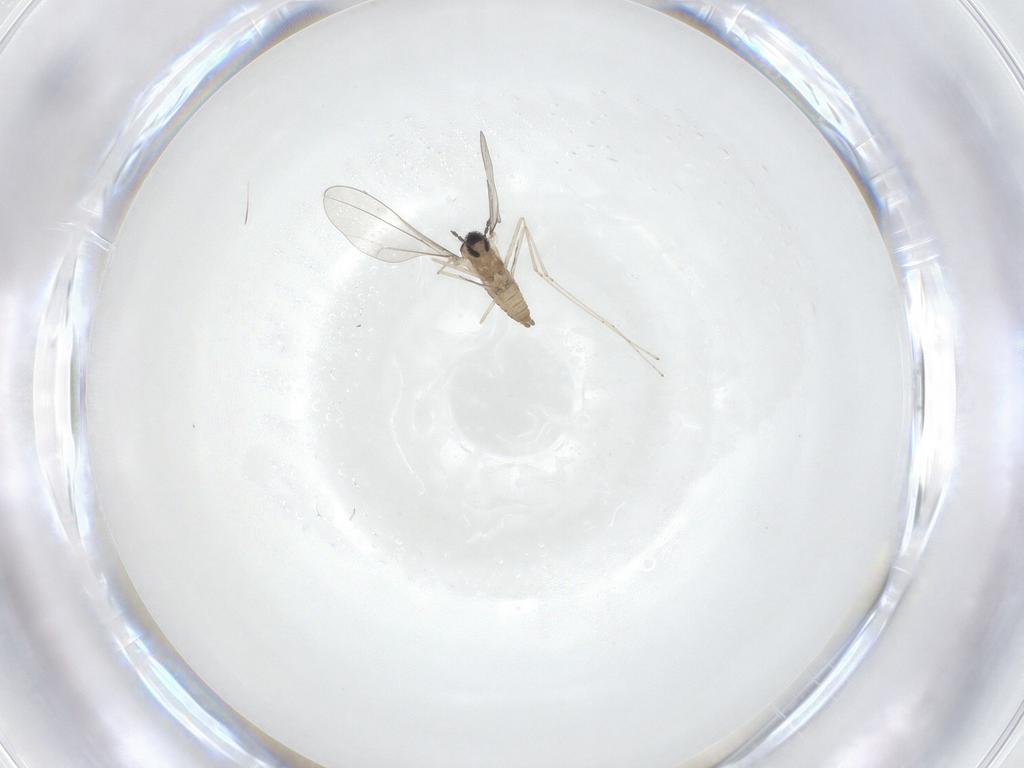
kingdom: Animalia
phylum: Arthropoda
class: Insecta
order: Diptera
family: Cecidomyiidae
